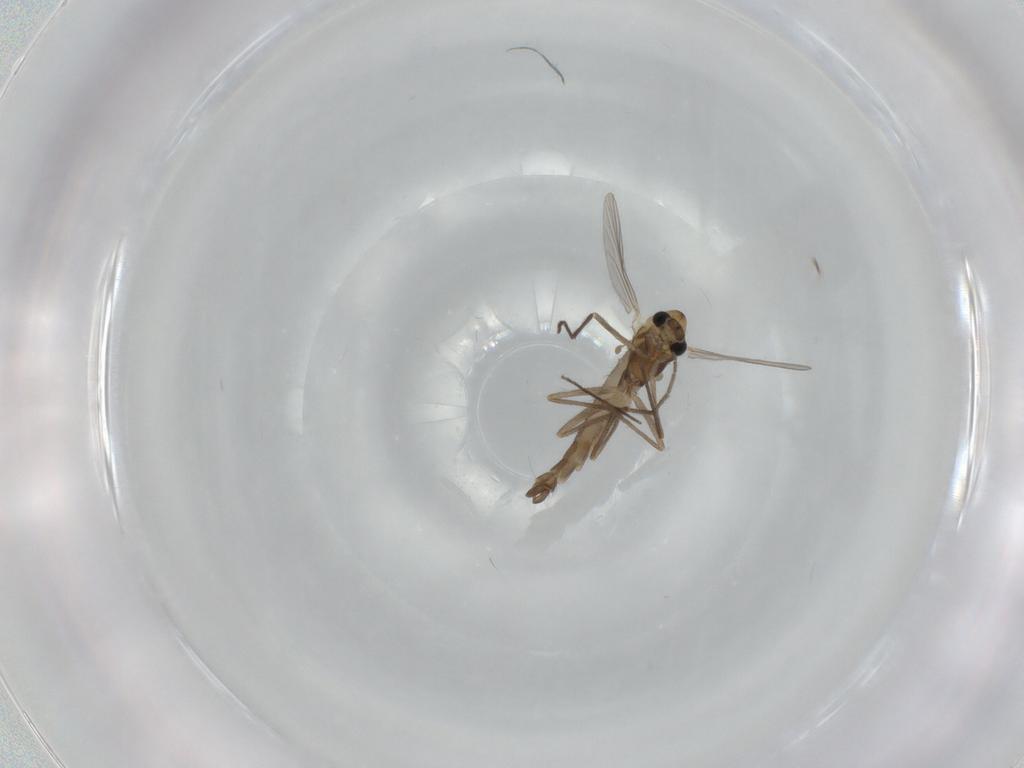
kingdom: Animalia
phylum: Arthropoda
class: Insecta
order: Diptera
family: Chironomidae
